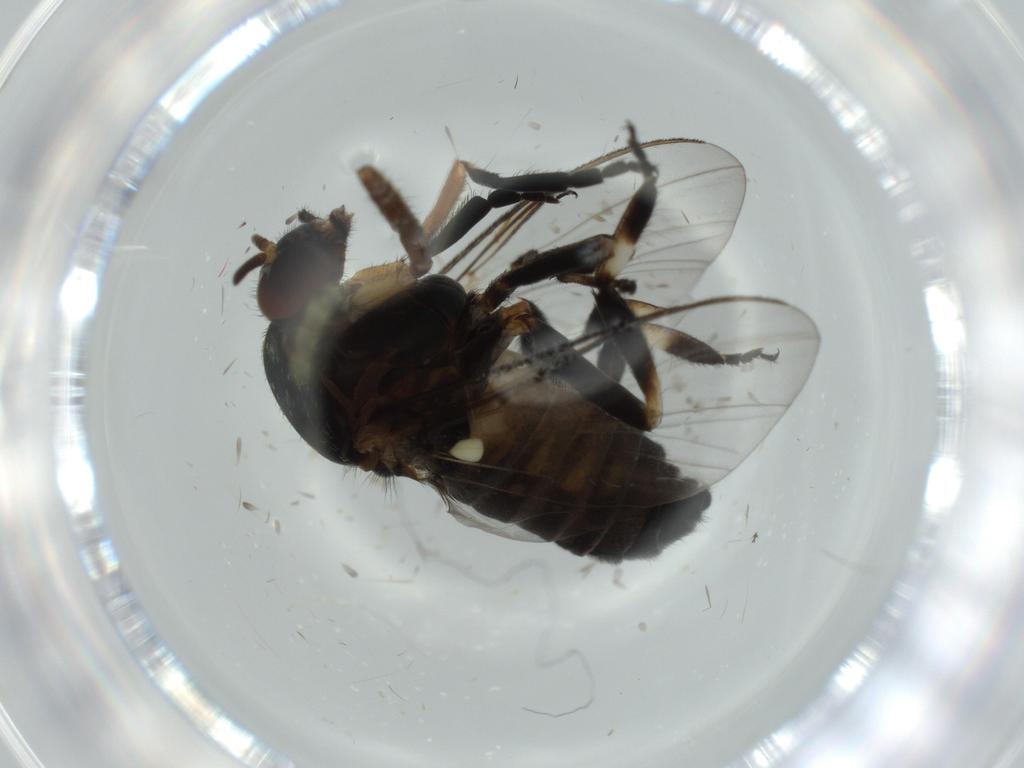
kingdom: Animalia
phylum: Arthropoda
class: Insecta
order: Diptera
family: Ceratopogonidae
